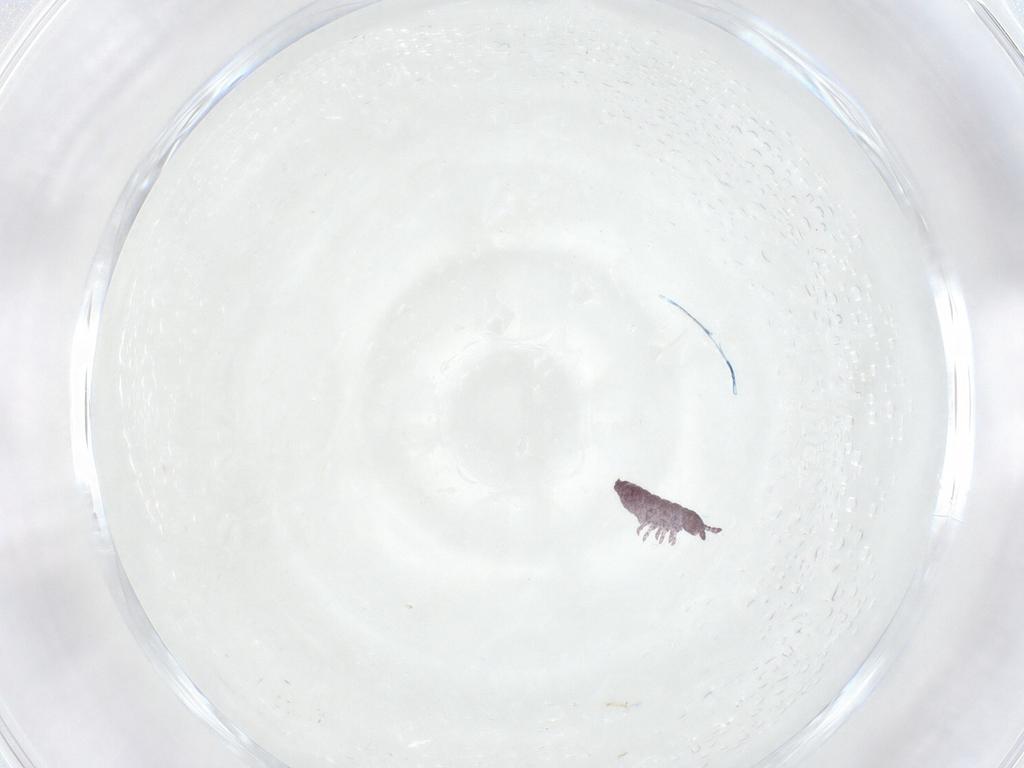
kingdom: Animalia
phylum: Arthropoda
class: Collembola
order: Poduromorpha
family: Hypogastruridae
